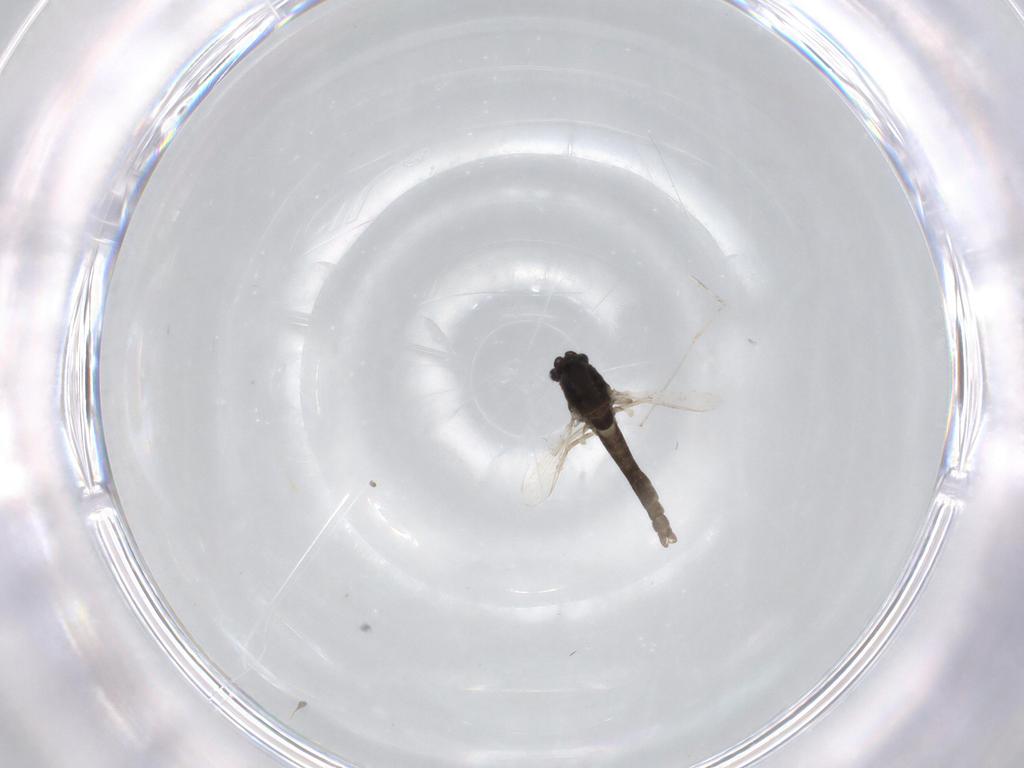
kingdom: Animalia
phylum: Arthropoda
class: Insecta
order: Diptera
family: Chironomidae
